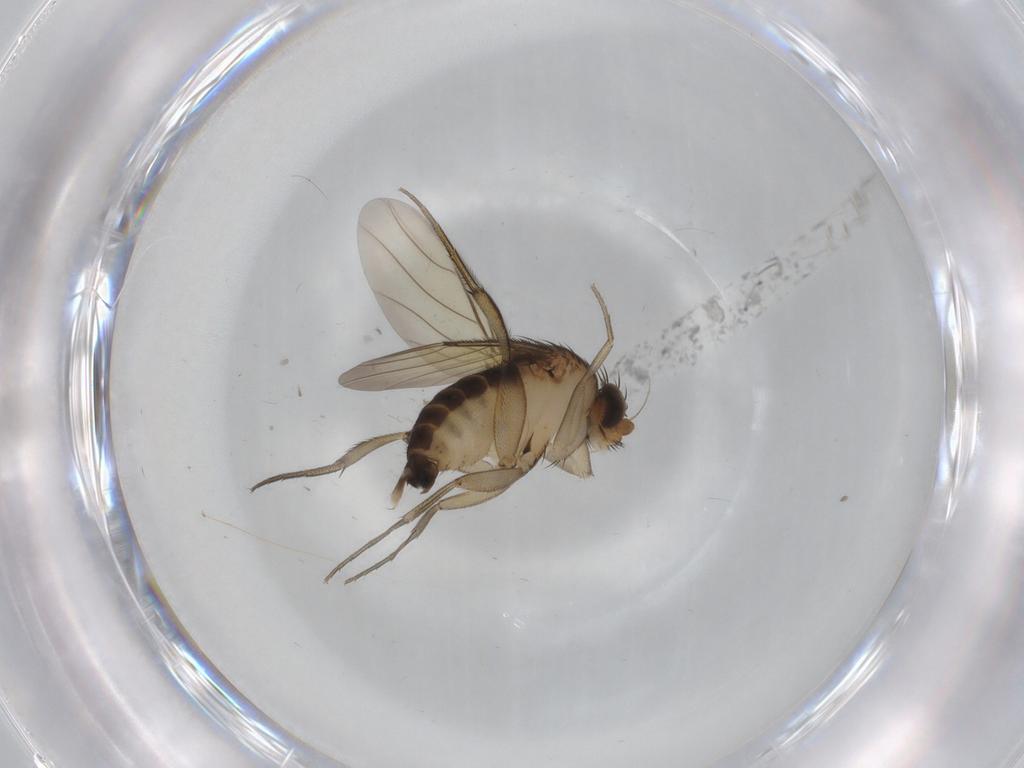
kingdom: Animalia
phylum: Arthropoda
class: Insecta
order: Diptera
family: Phoridae
